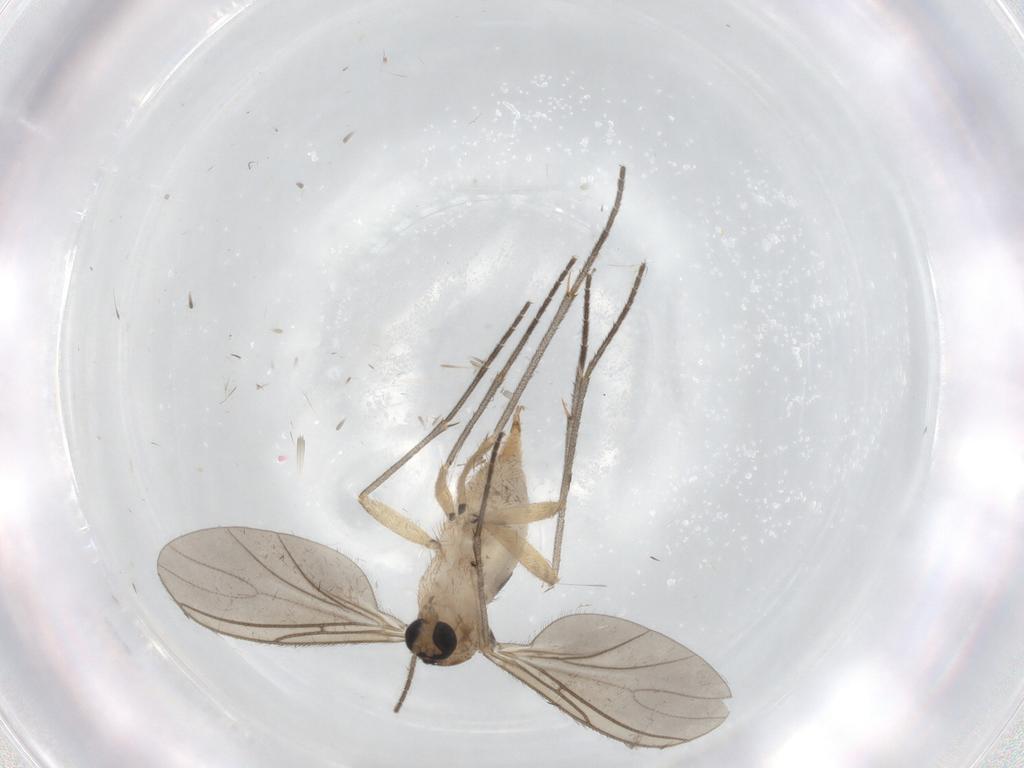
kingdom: Animalia
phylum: Arthropoda
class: Insecta
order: Diptera
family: Sciaridae
